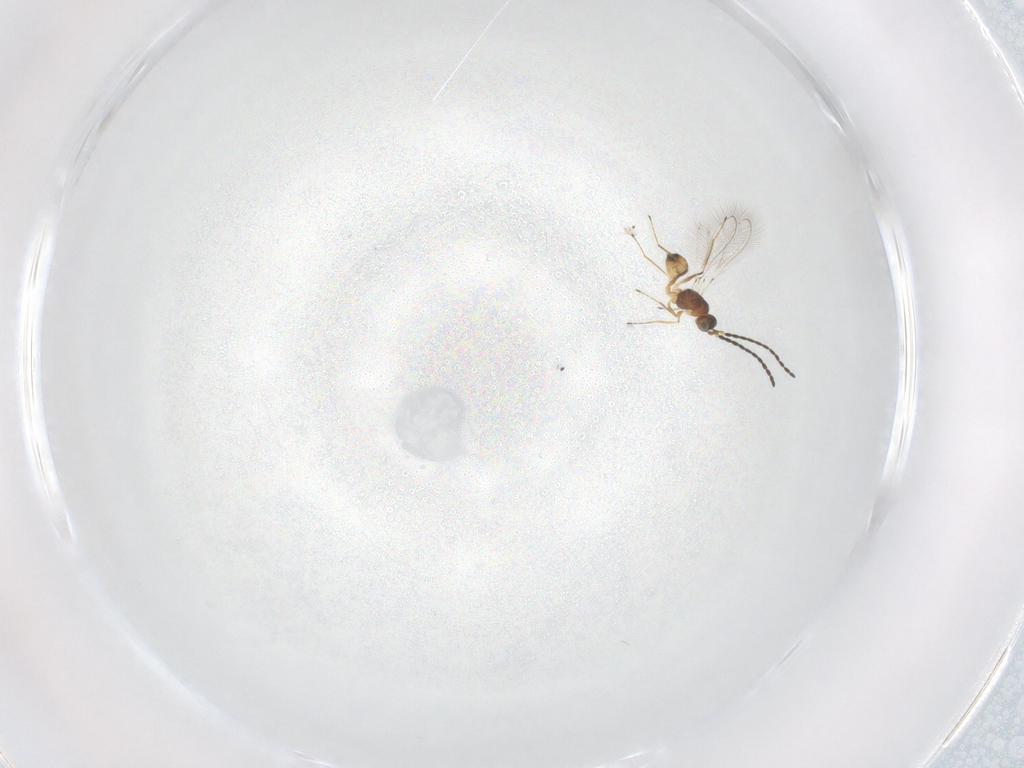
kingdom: Animalia
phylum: Arthropoda
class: Insecta
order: Hymenoptera
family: Mymaridae
